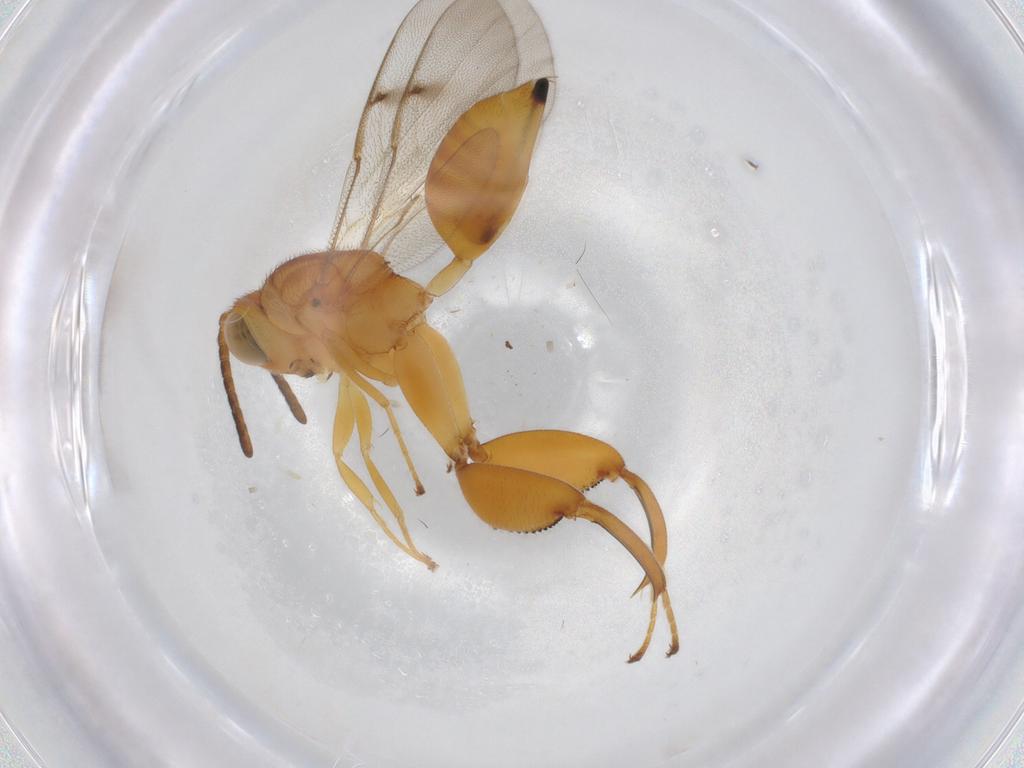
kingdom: Animalia
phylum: Arthropoda
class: Insecta
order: Hymenoptera
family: Chalcididae
